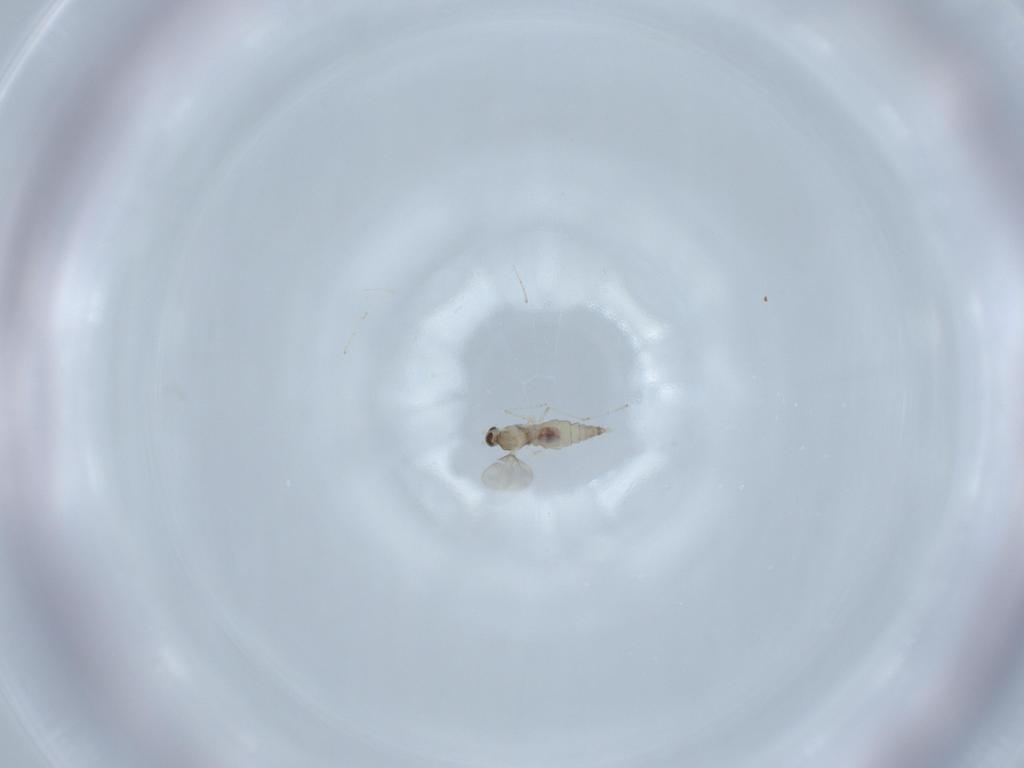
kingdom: Animalia
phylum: Arthropoda
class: Insecta
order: Diptera
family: Cecidomyiidae
